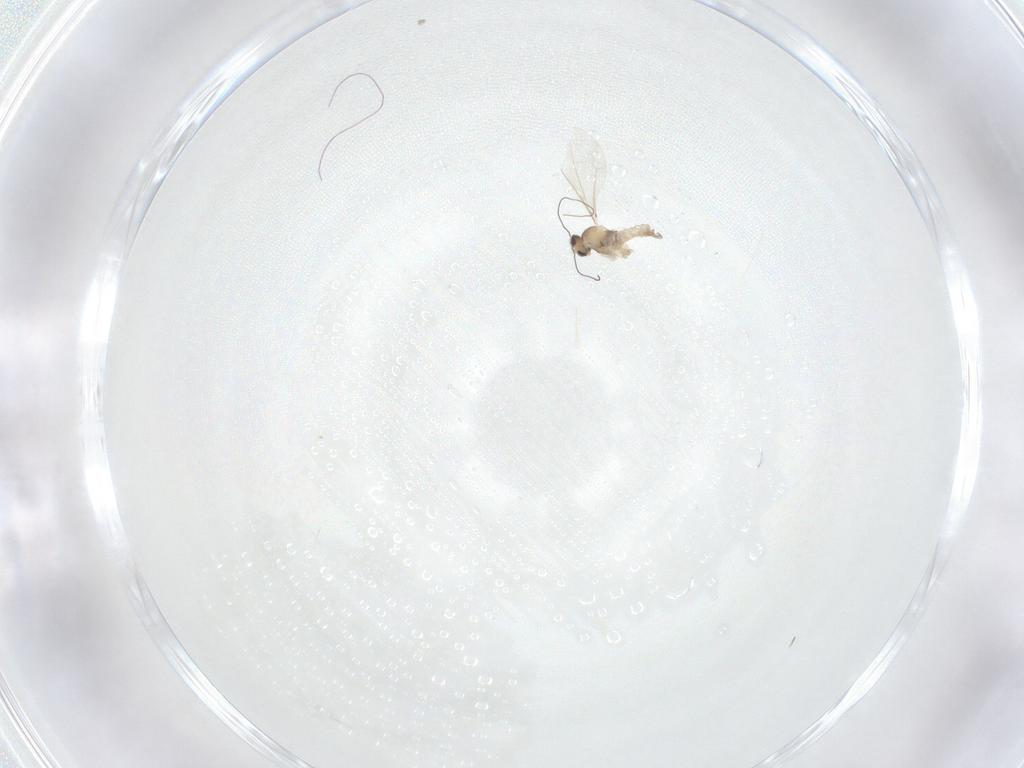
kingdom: Animalia
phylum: Arthropoda
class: Insecta
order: Diptera
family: Cecidomyiidae
